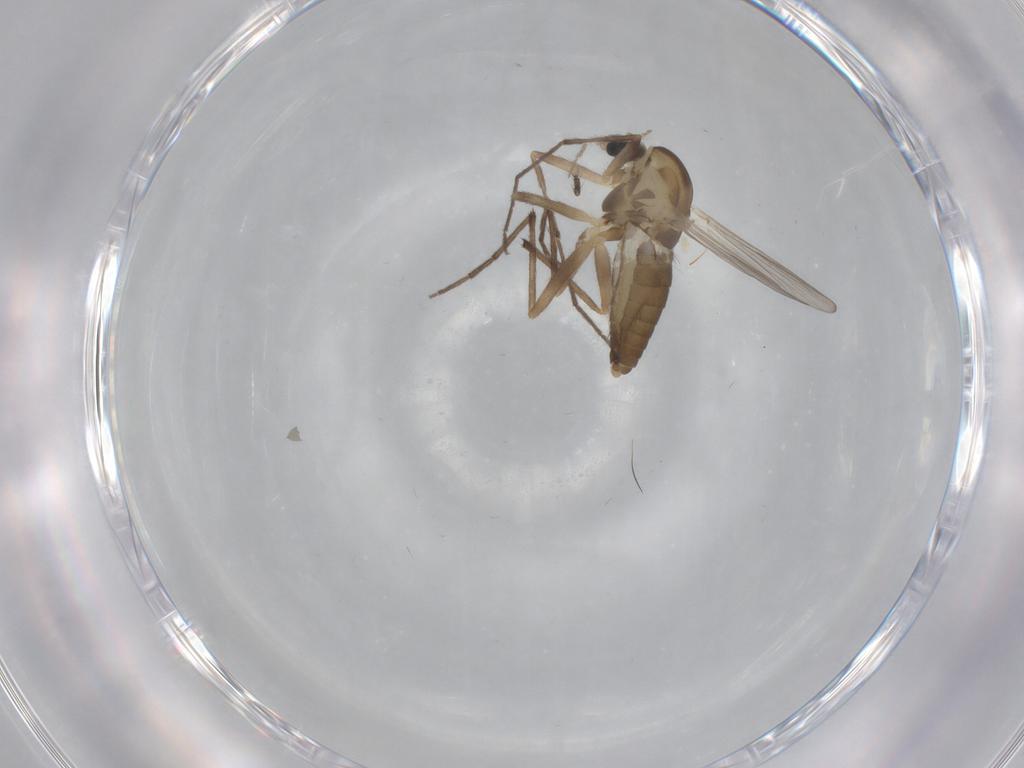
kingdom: Animalia
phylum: Arthropoda
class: Insecta
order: Diptera
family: Chironomidae
